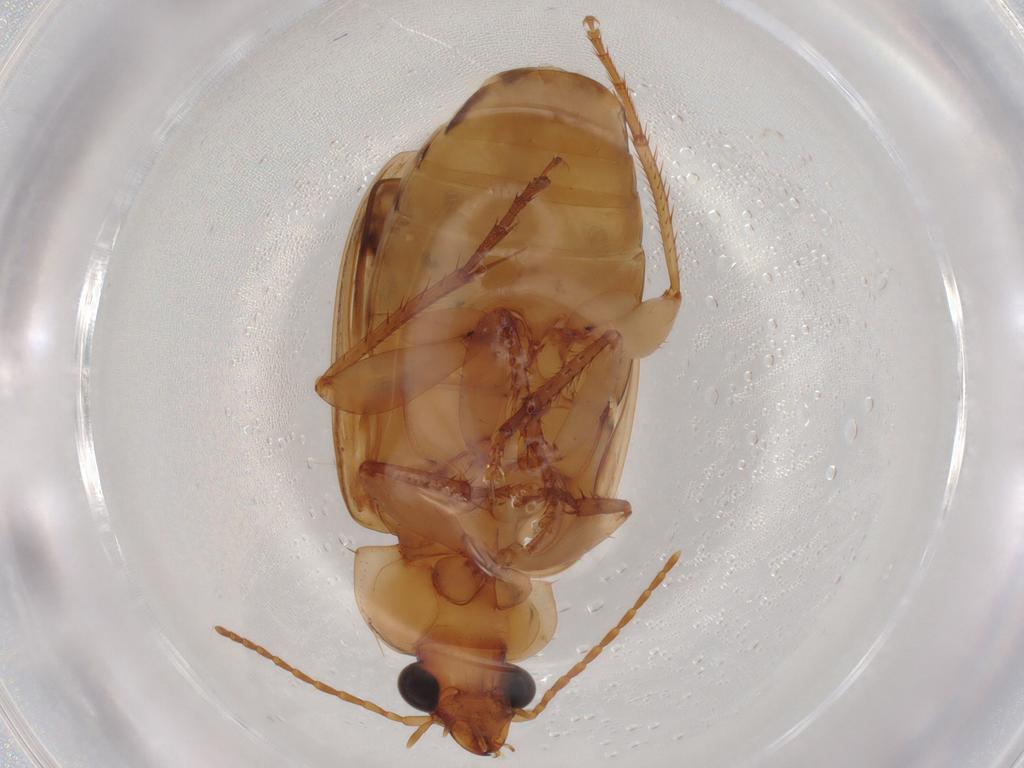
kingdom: Animalia
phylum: Arthropoda
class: Insecta
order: Coleoptera
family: Carabidae
